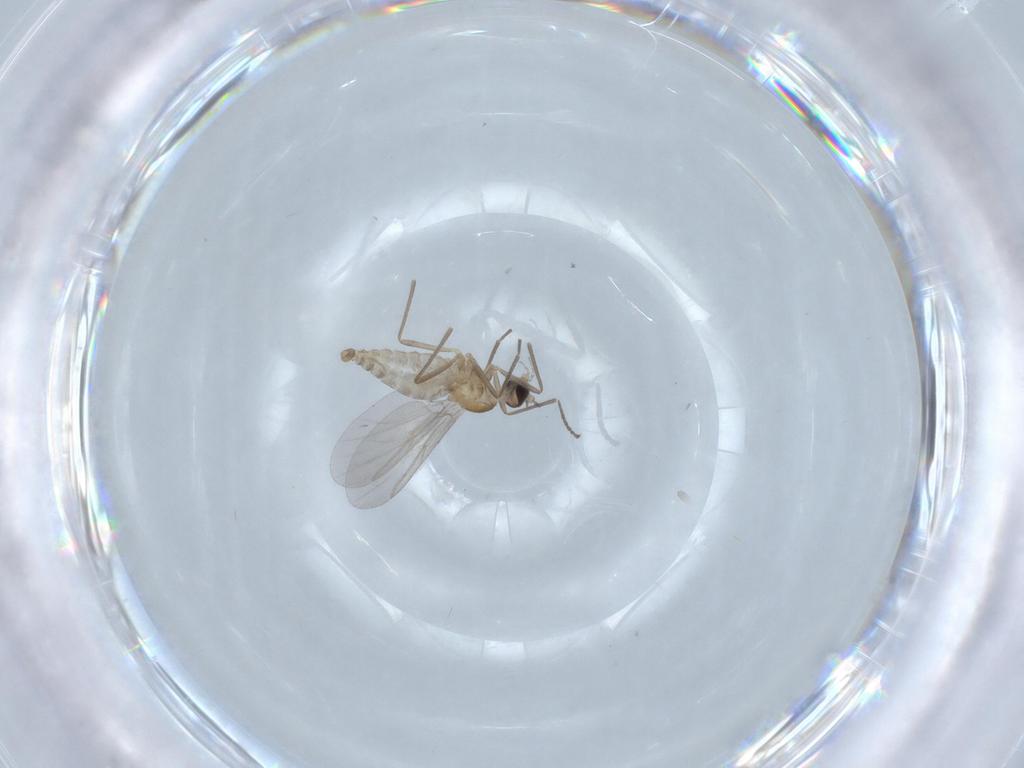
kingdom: Animalia
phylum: Arthropoda
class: Insecta
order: Diptera
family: Cecidomyiidae
